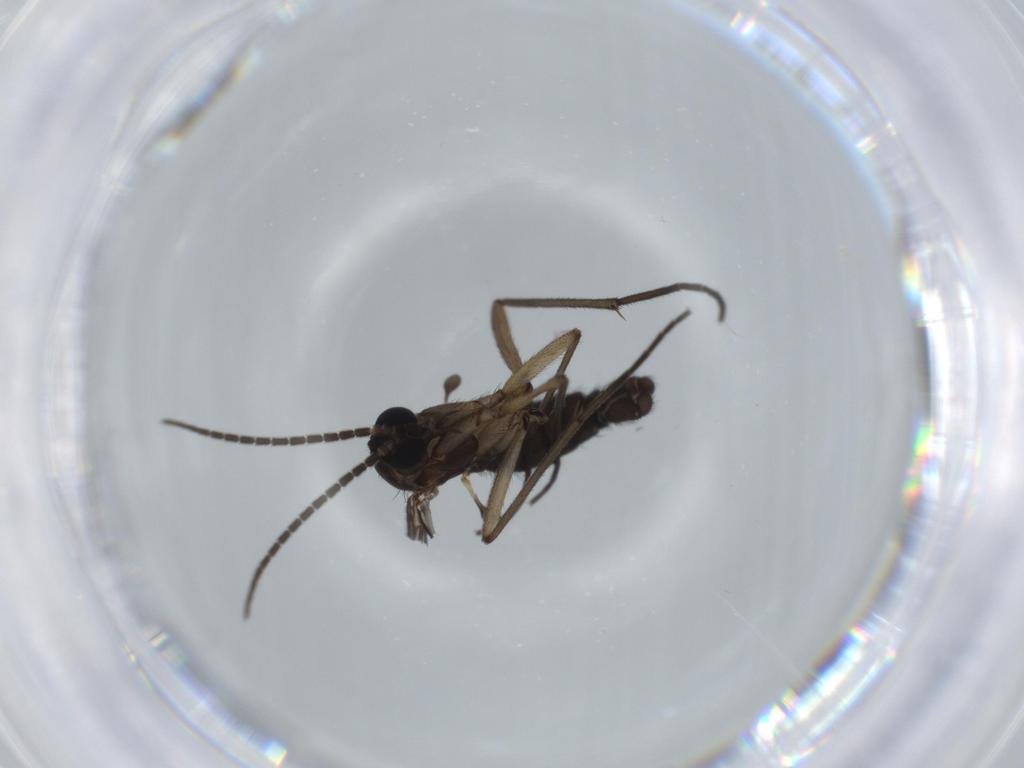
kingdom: Animalia
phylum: Arthropoda
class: Insecta
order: Diptera
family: Sciaridae
